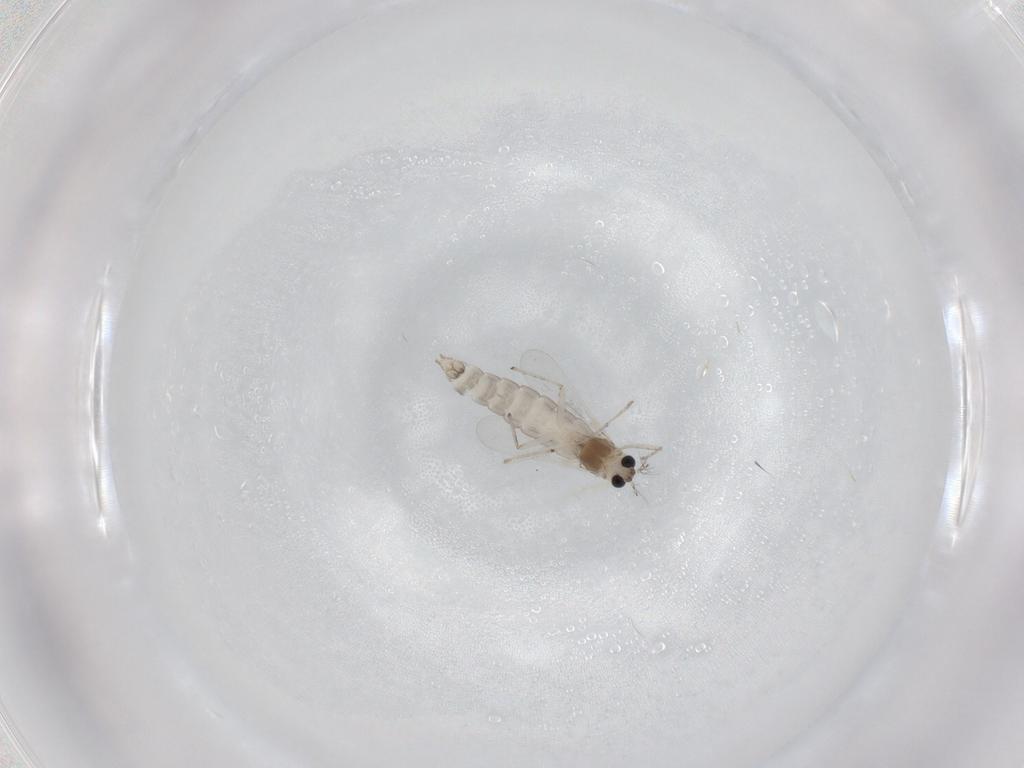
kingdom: Animalia
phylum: Arthropoda
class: Insecta
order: Diptera
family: Chironomidae
